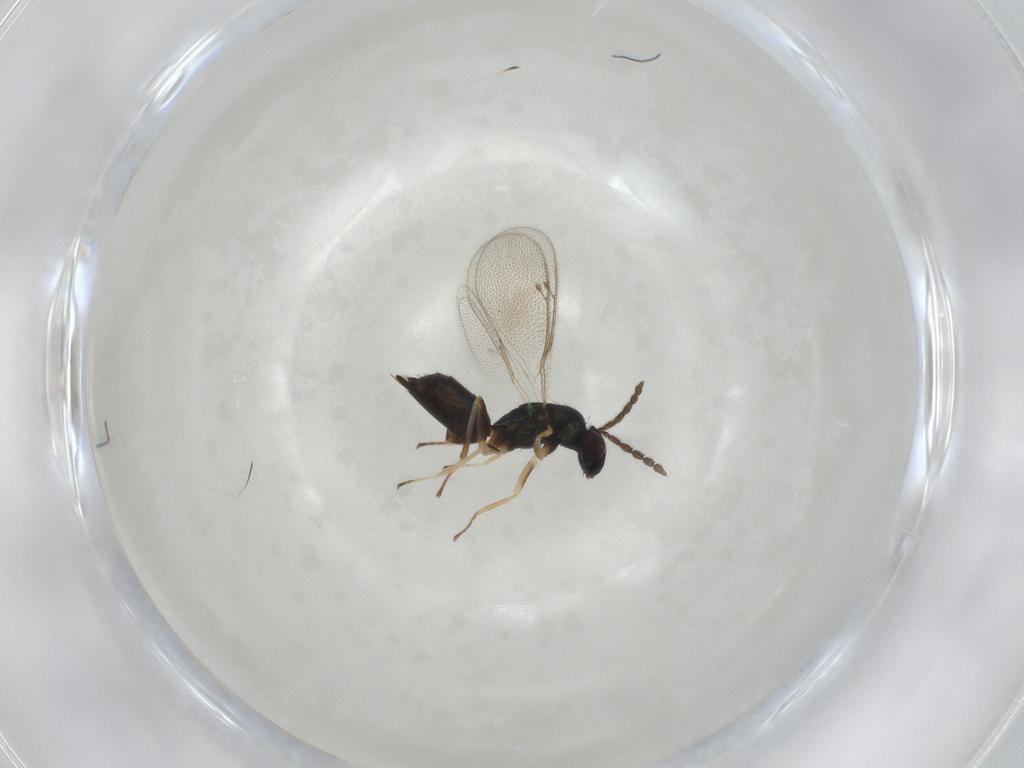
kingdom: Animalia
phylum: Arthropoda
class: Insecta
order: Hymenoptera
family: Eulophidae
